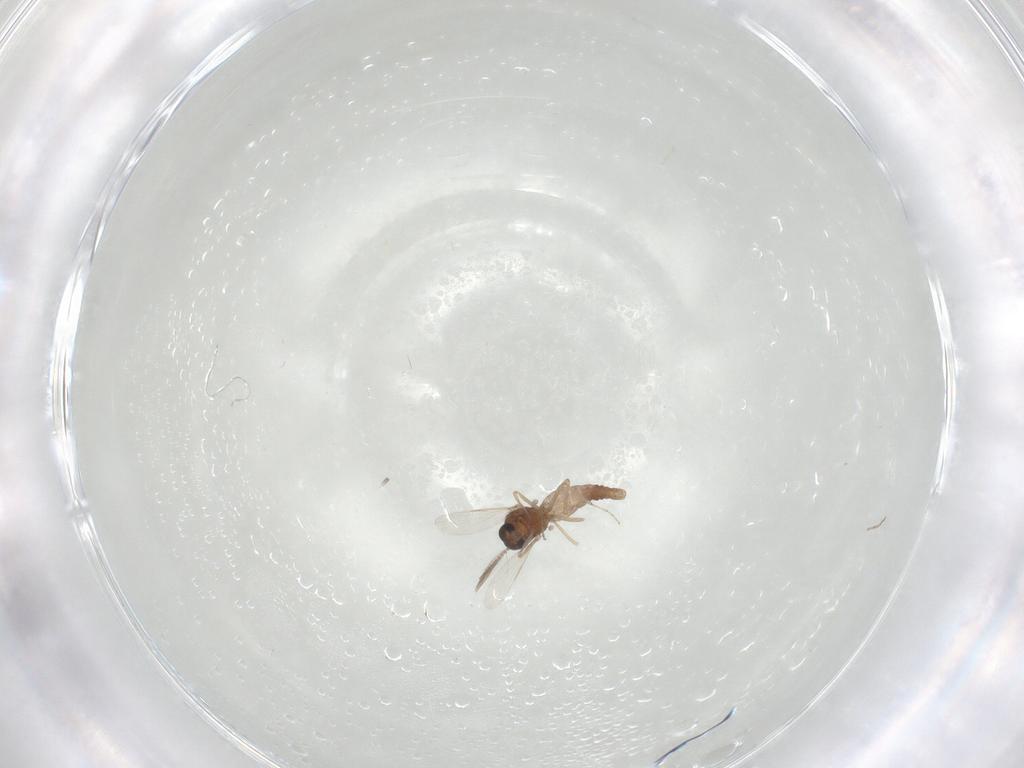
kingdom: Animalia
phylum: Arthropoda
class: Insecta
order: Diptera
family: Ceratopogonidae
